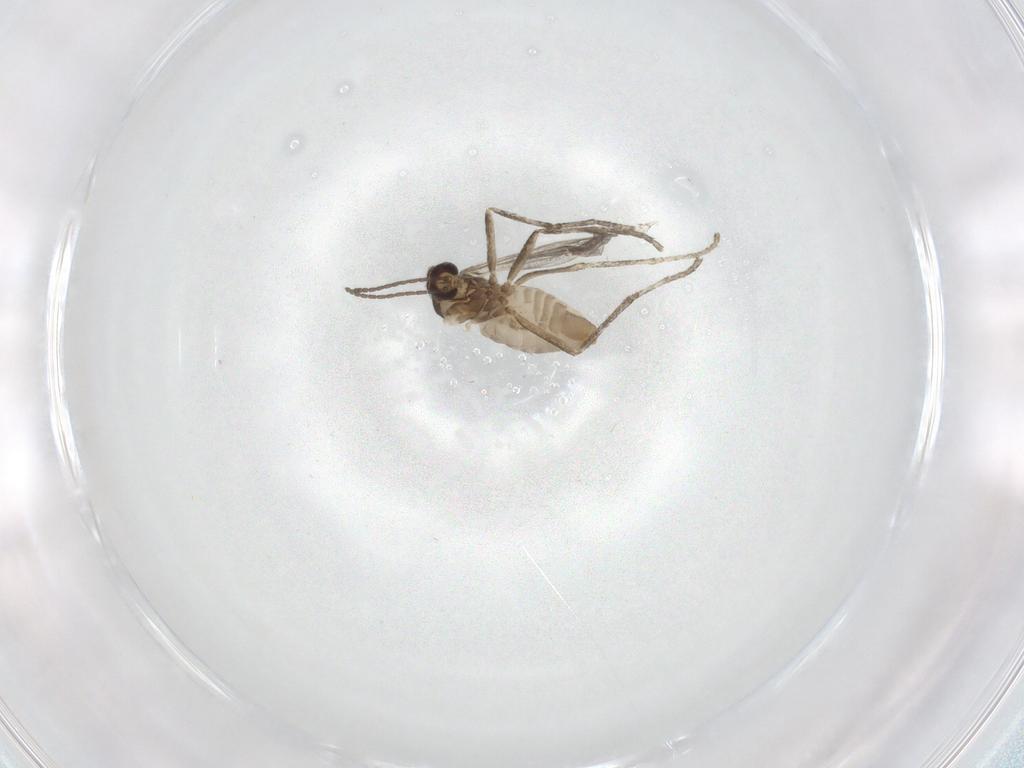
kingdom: Animalia
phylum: Arthropoda
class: Insecta
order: Diptera
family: Cecidomyiidae
